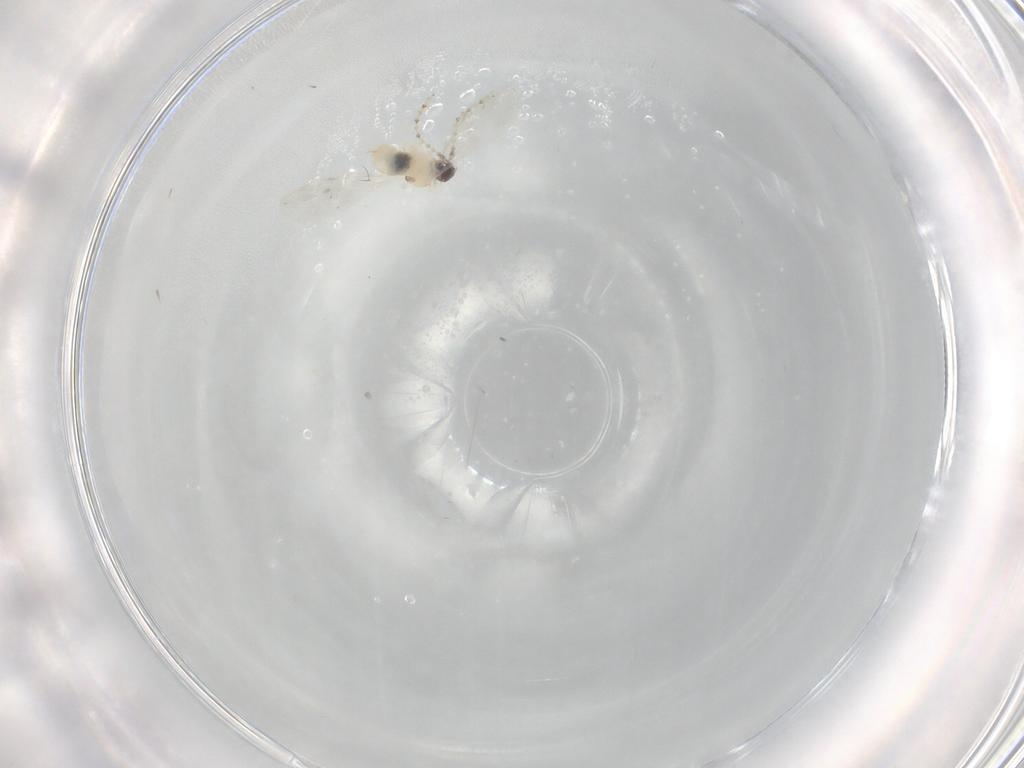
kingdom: Animalia
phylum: Arthropoda
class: Insecta
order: Diptera
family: Cecidomyiidae
